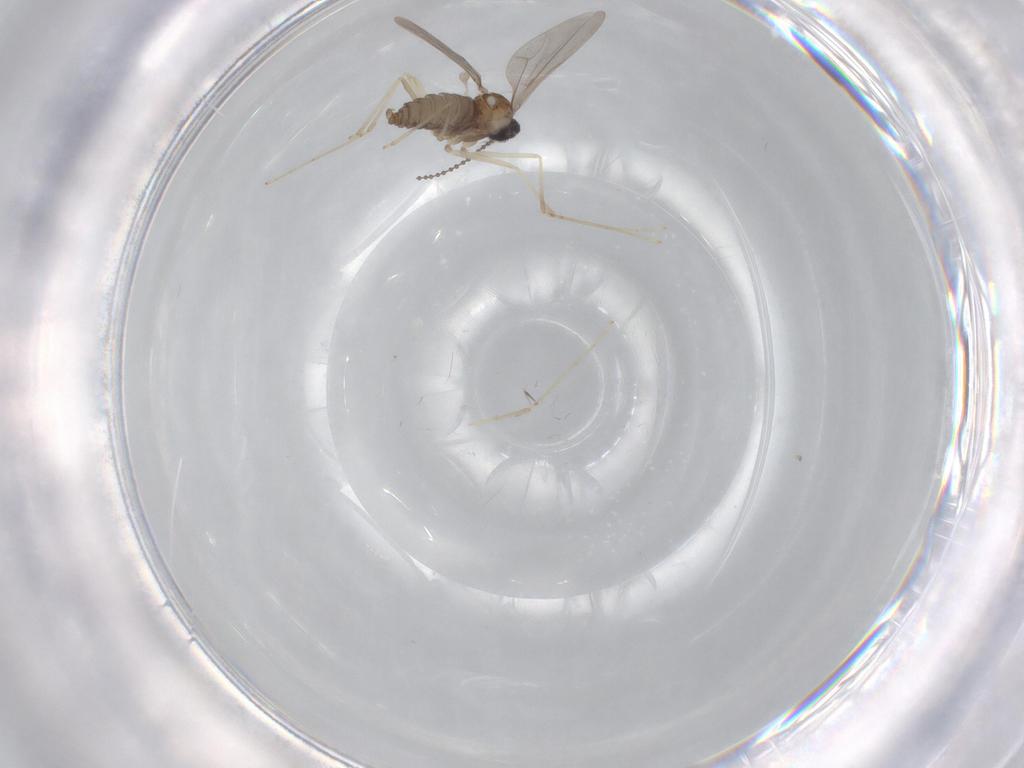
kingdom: Animalia
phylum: Arthropoda
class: Insecta
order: Diptera
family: Cecidomyiidae
